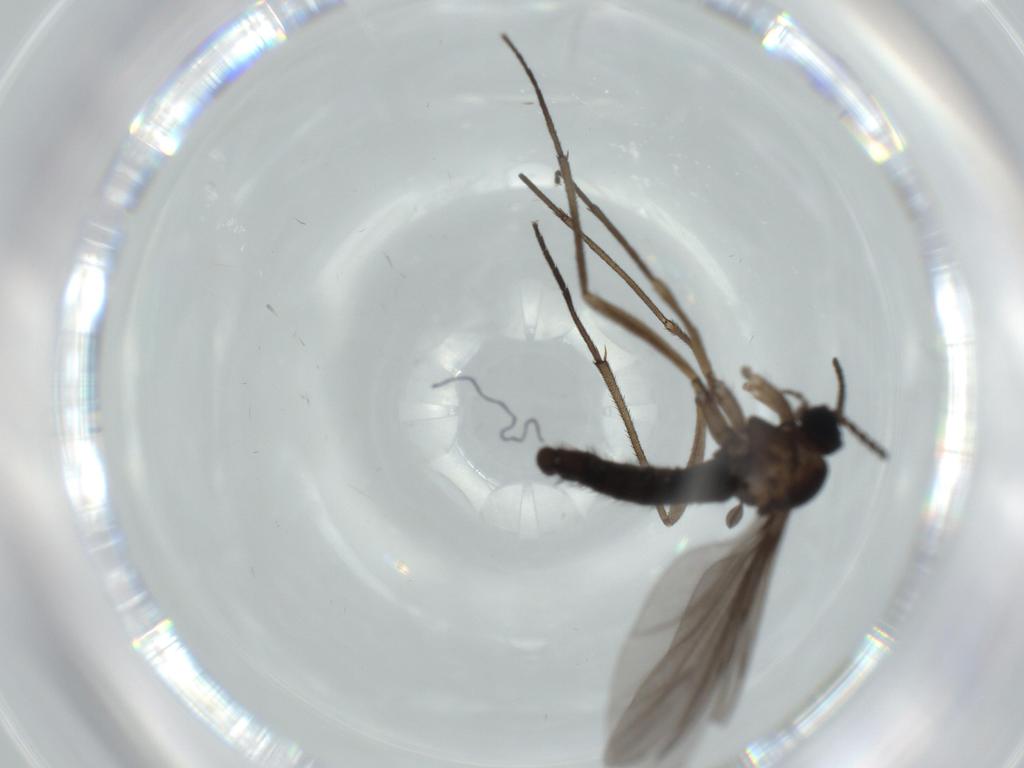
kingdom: Animalia
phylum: Arthropoda
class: Insecta
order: Diptera
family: Sciaridae
